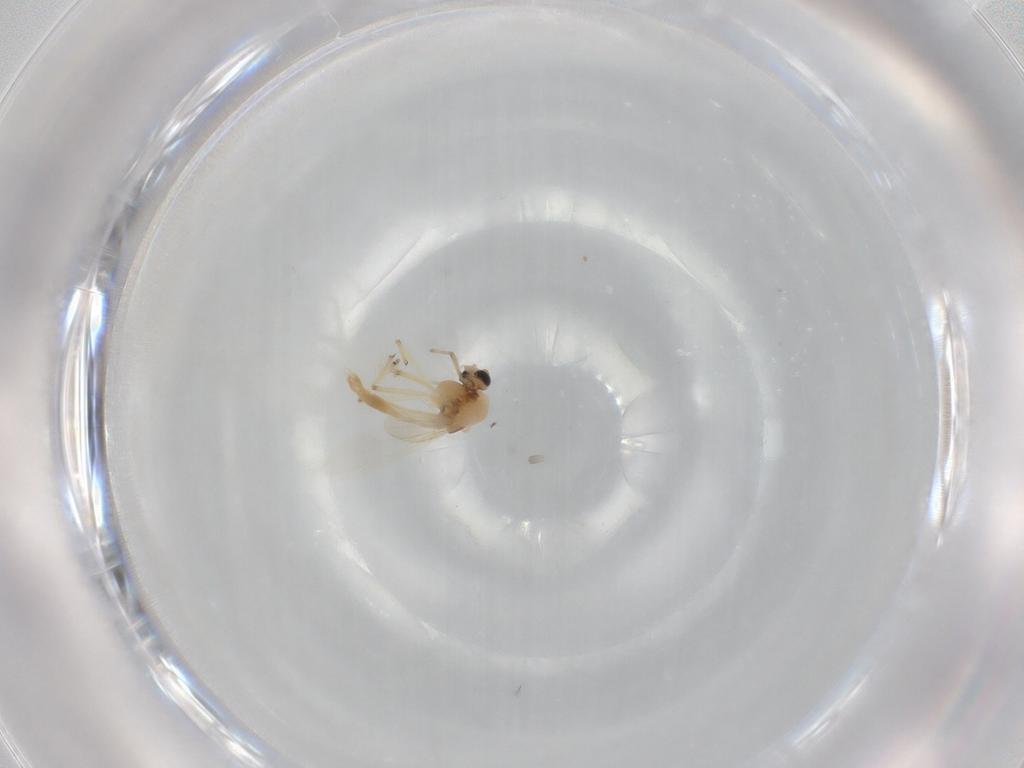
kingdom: Animalia
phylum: Arthropoda
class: Insecta
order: Diptera
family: Chironomidae
